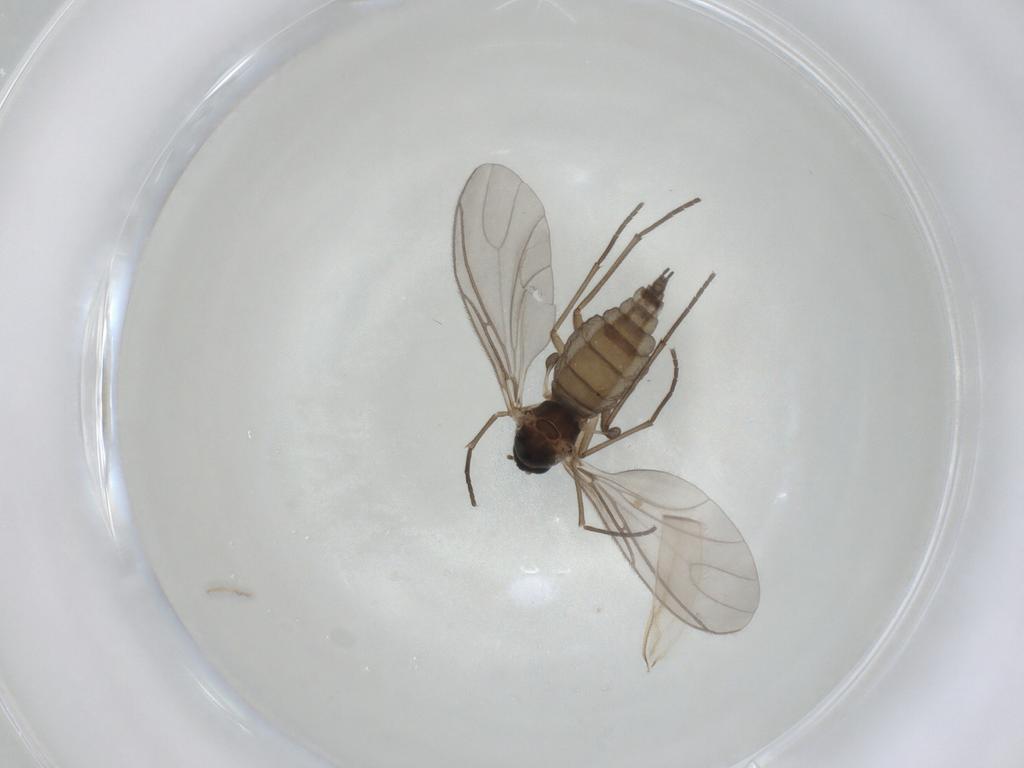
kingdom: Animalia
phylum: Arthropoda
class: Insecta
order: Diptera
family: Sciaridae
